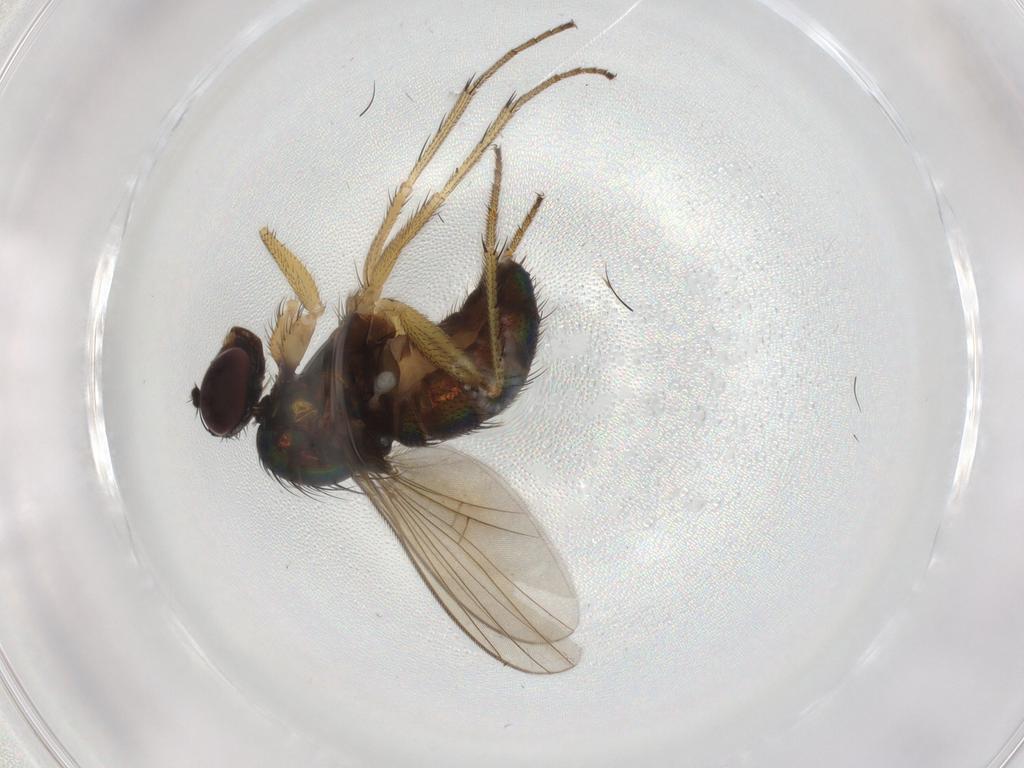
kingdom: Animalia
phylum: Arthropoda
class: Insecta
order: Diptera
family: Dolichopodidae
